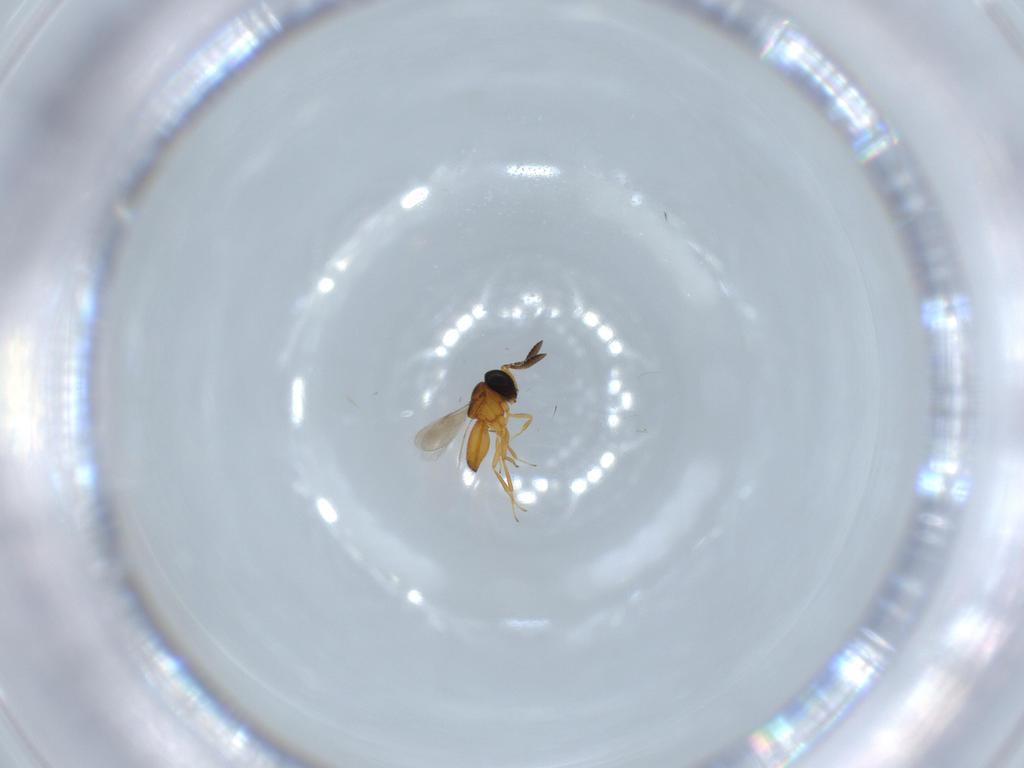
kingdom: Animalia
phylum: Arthropoda
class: Insecta
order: Hymenoptera
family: Scelionidae
